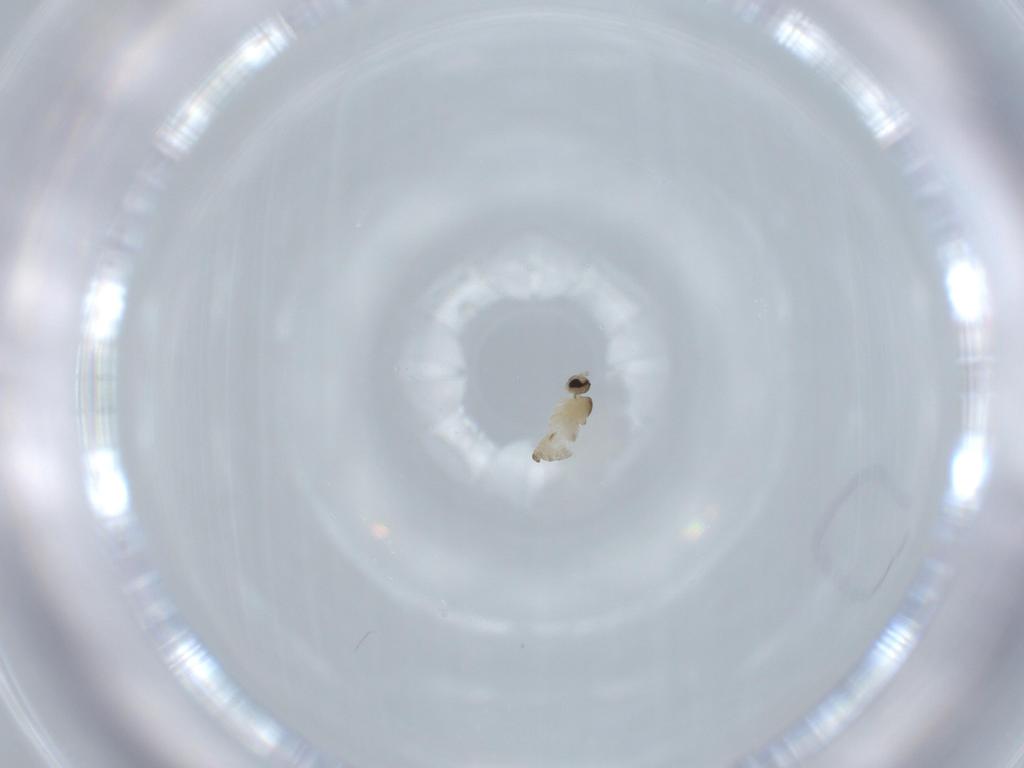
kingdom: Animalia
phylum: Arthropoda
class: Insecta
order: Diptera
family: Cecidomyiidae
